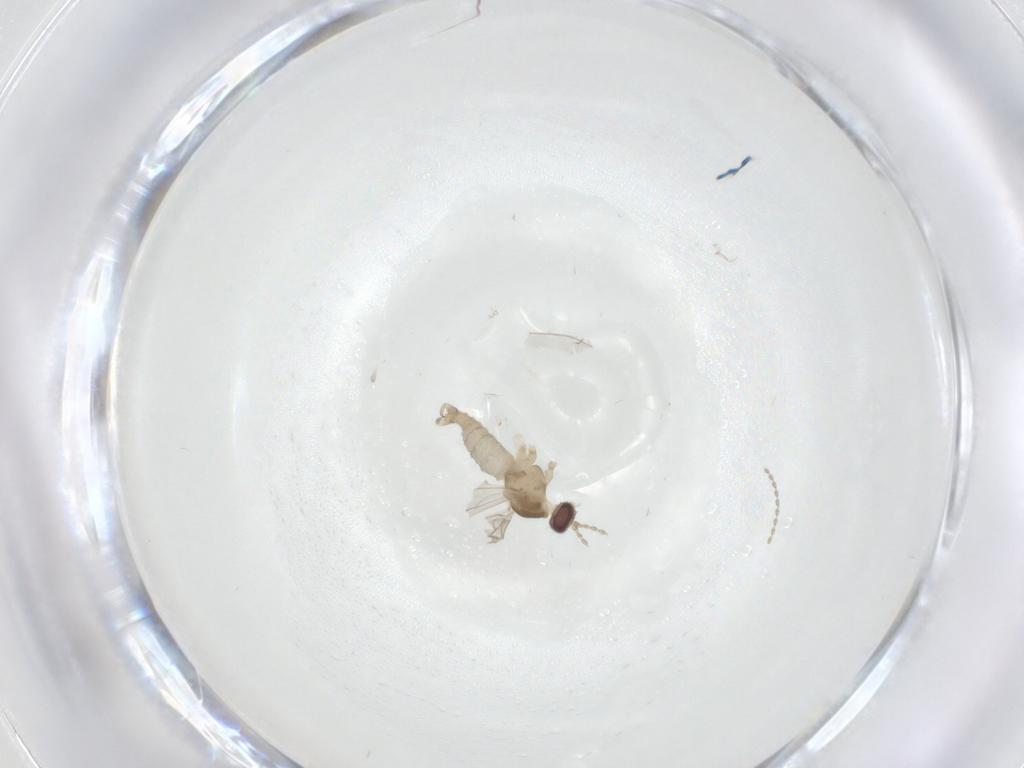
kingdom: Animalia
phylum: Arthropoda
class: Insecta
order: Diptera
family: Cecidomyiidae
